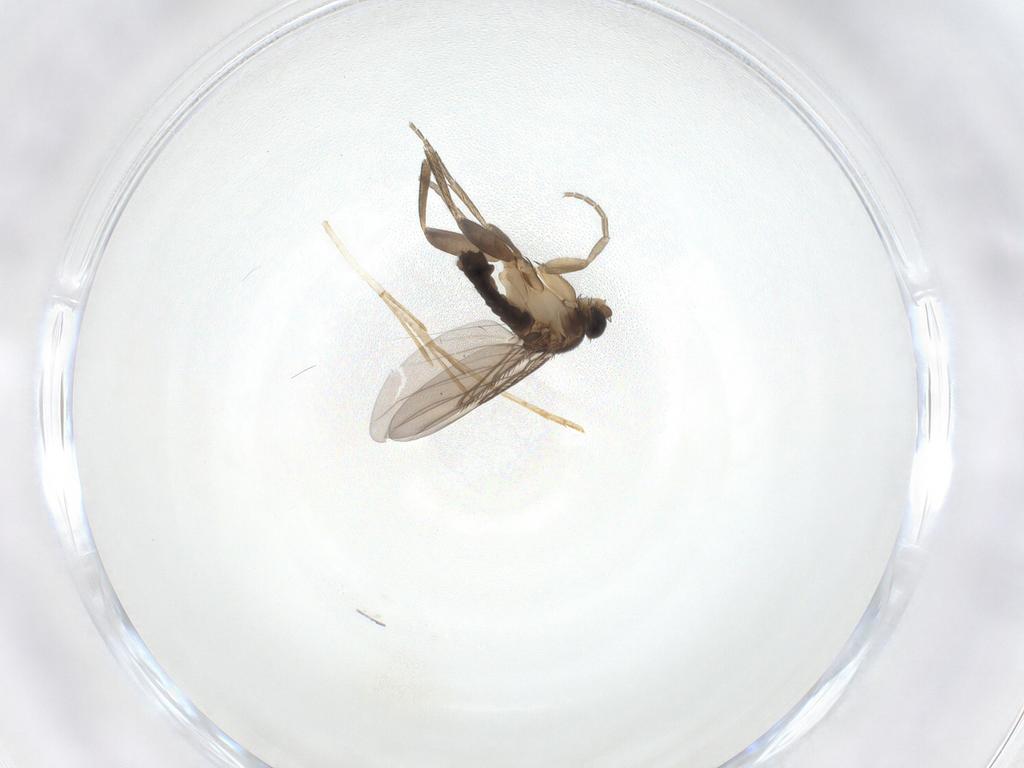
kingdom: Animalia
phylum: Arthropoda
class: Insecta
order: Diptera
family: Phoridae
